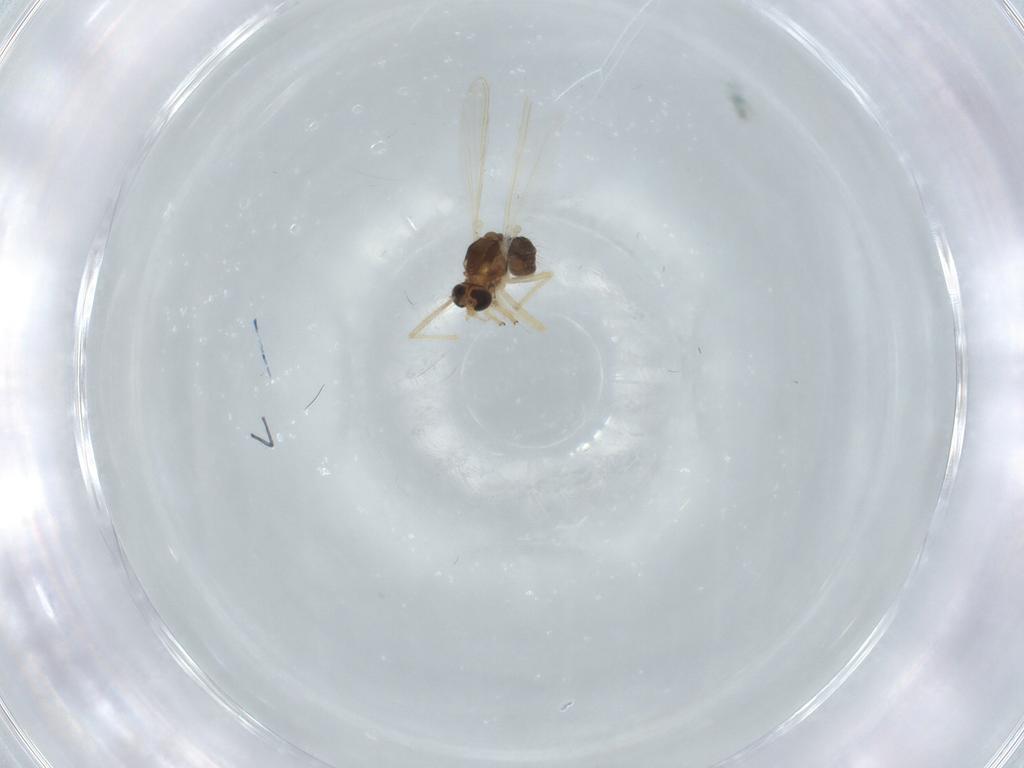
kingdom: Animalia
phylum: Arthropoda
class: Insecta
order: Diptera
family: Chironomidae
